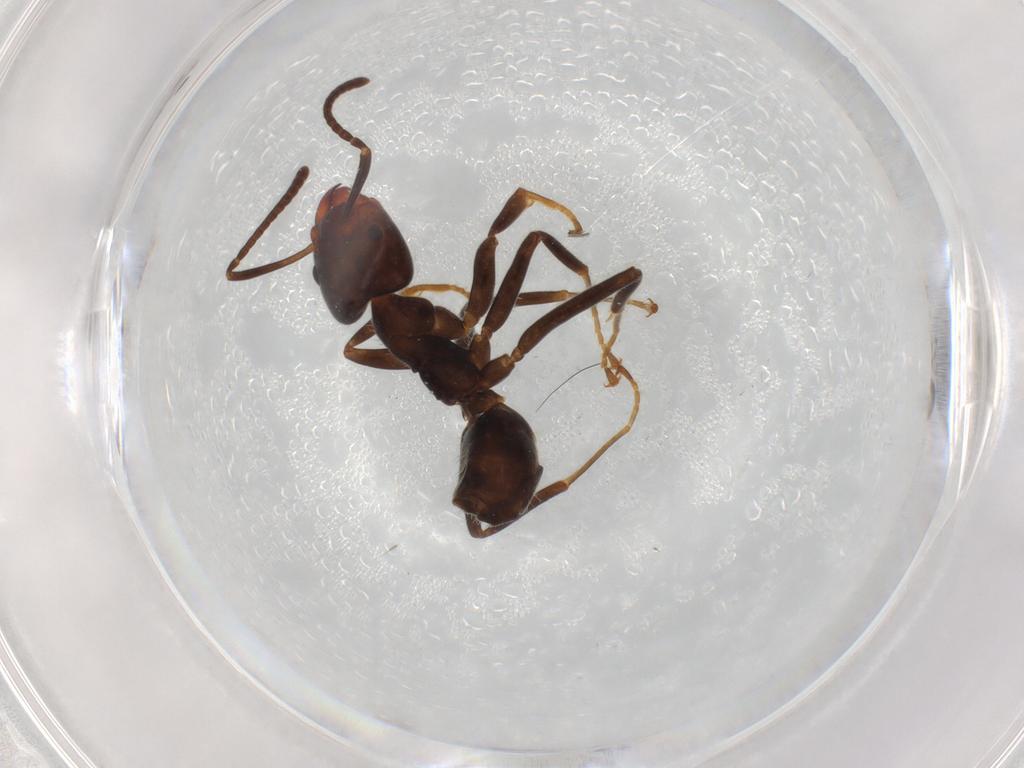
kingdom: Animalia
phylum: Arthropoda
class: Insecta
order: Hymenoptera
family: Formicidae
